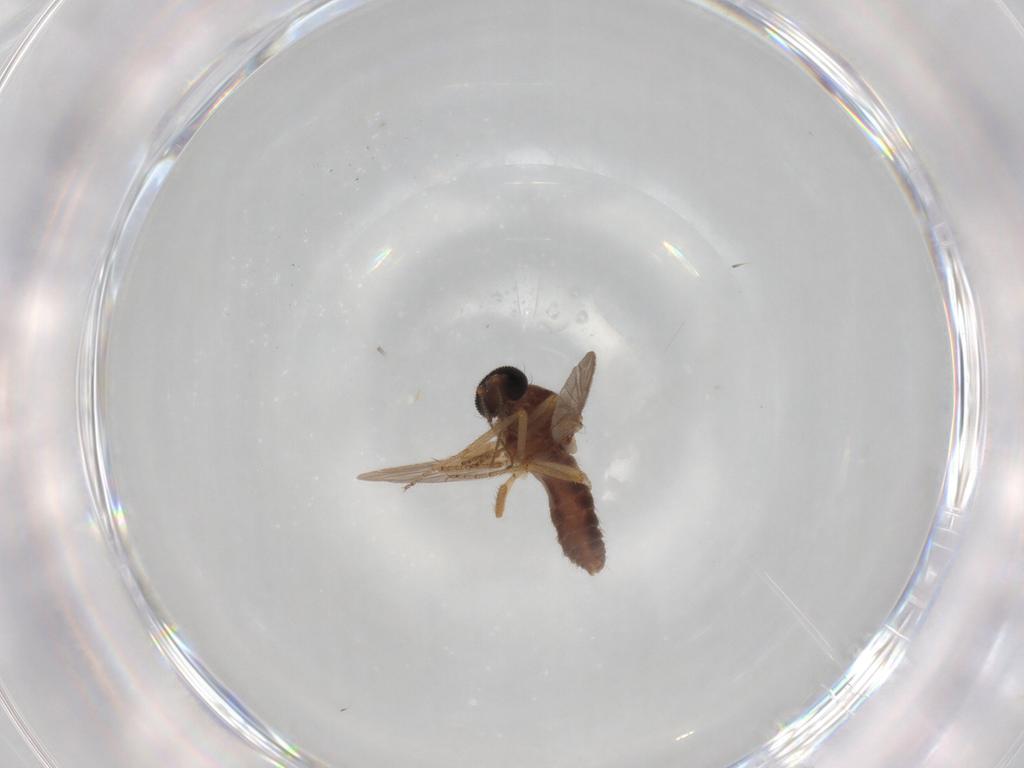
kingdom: Animalia
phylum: Arthropoda
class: Insecta
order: Diptera
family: Ceratopogonidae
